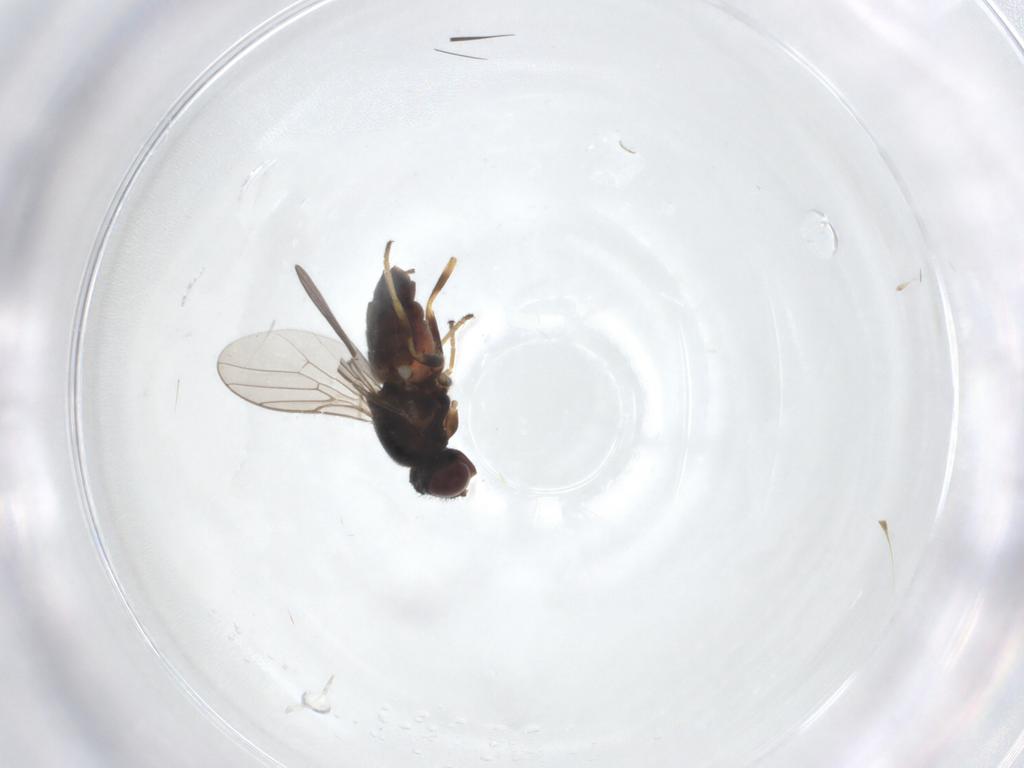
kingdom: Animalia
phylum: Arthropoda
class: Insecta
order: Diptera
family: Chloropidae
